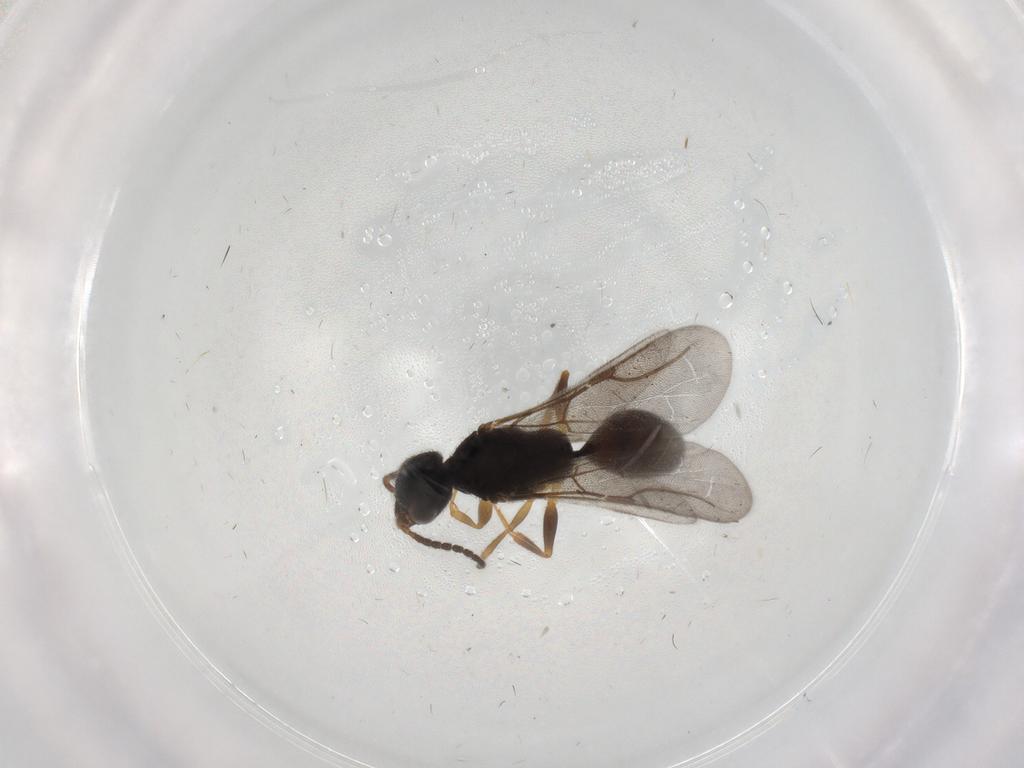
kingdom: Animalia
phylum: Arthropoda
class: Insecta
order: Hymenoptera
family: Bethylidae
